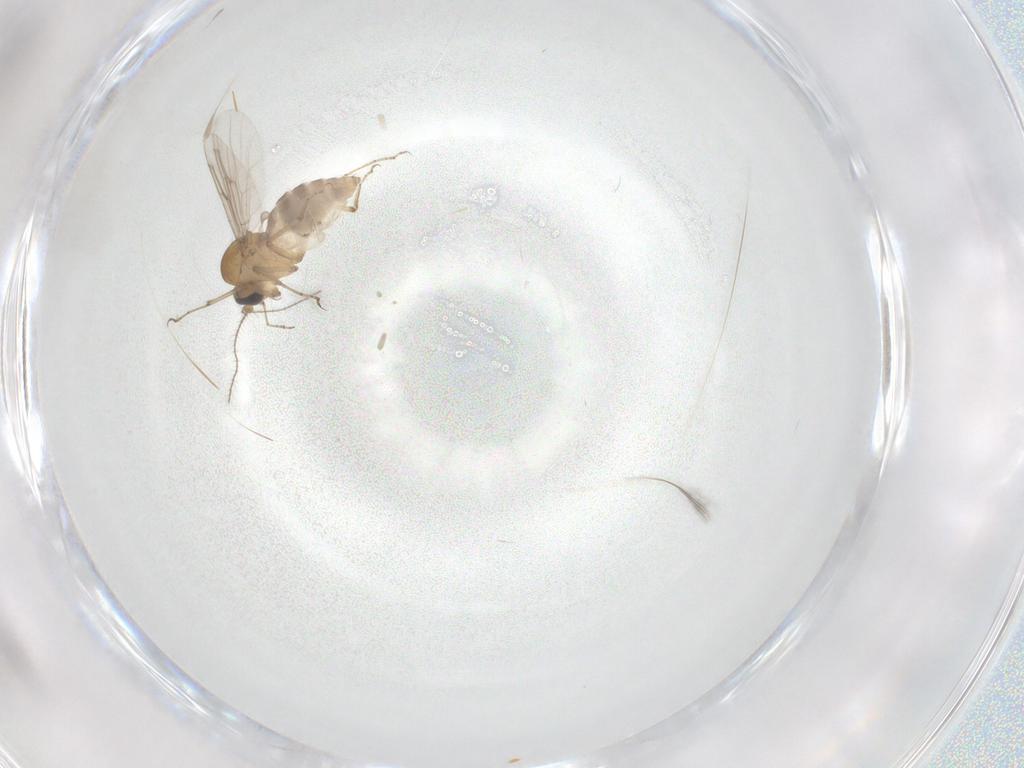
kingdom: Animalia
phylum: Arthropoda
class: Insecta
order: Diptera
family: Ceratopogonidae
